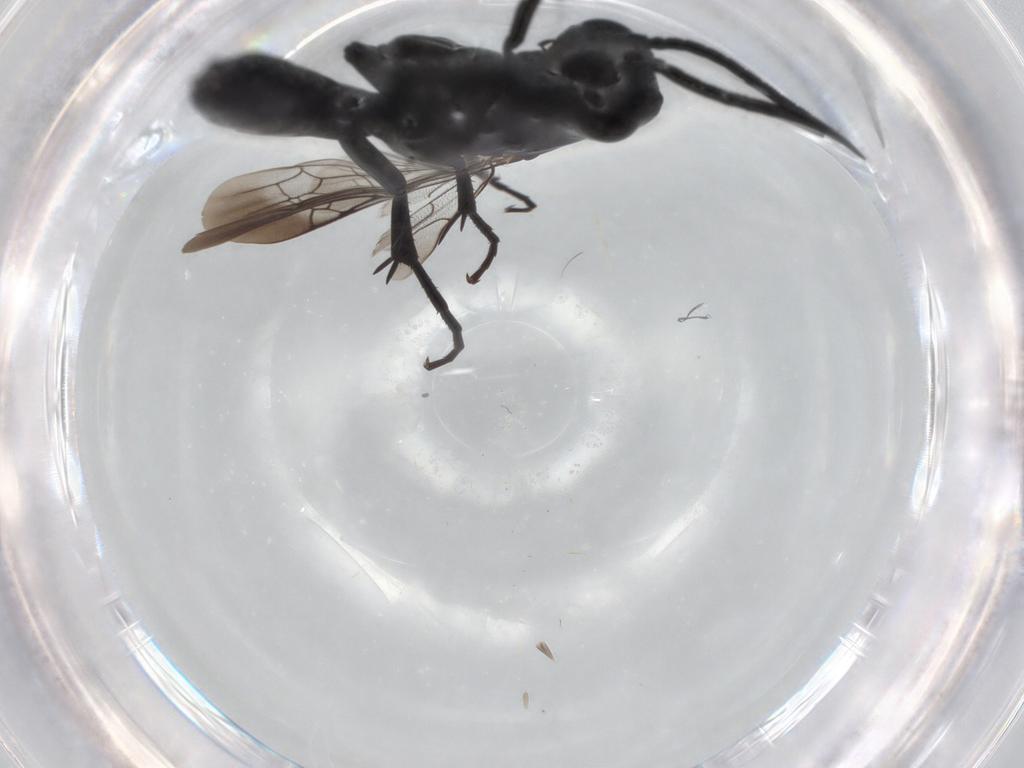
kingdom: Animalia
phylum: Arthropoda
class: Insecta
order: Hymenoptera
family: Pompilidae
